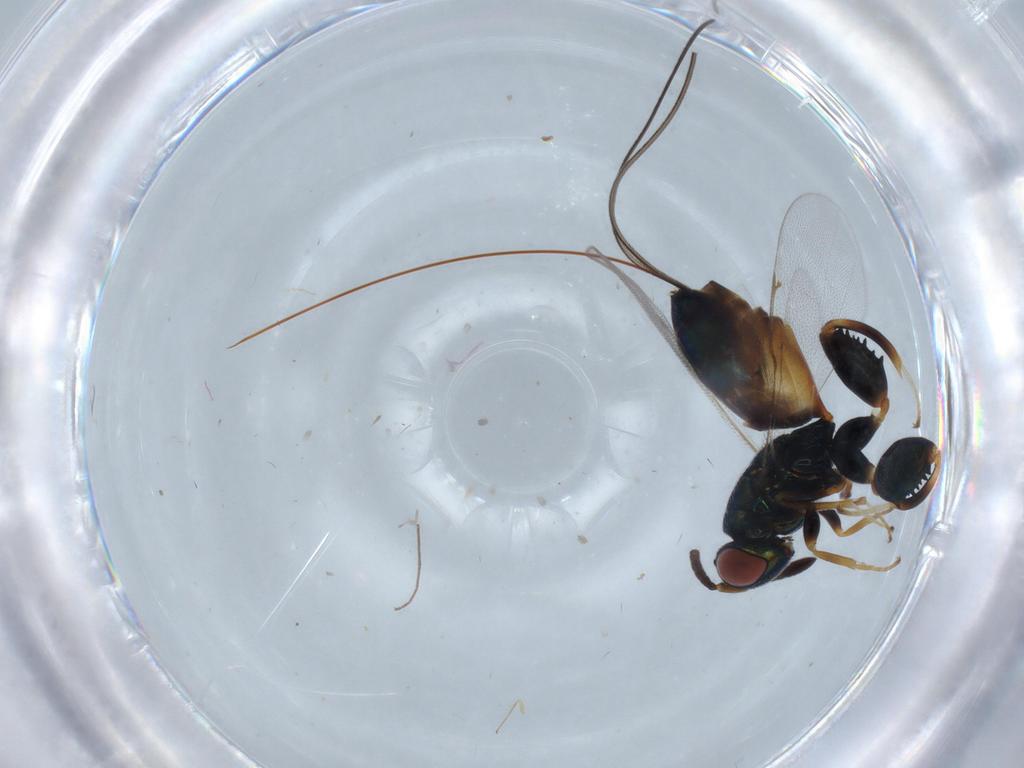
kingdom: Animalia
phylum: Arthropoda
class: Insecta
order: Hymenoptera
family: Torymidae
